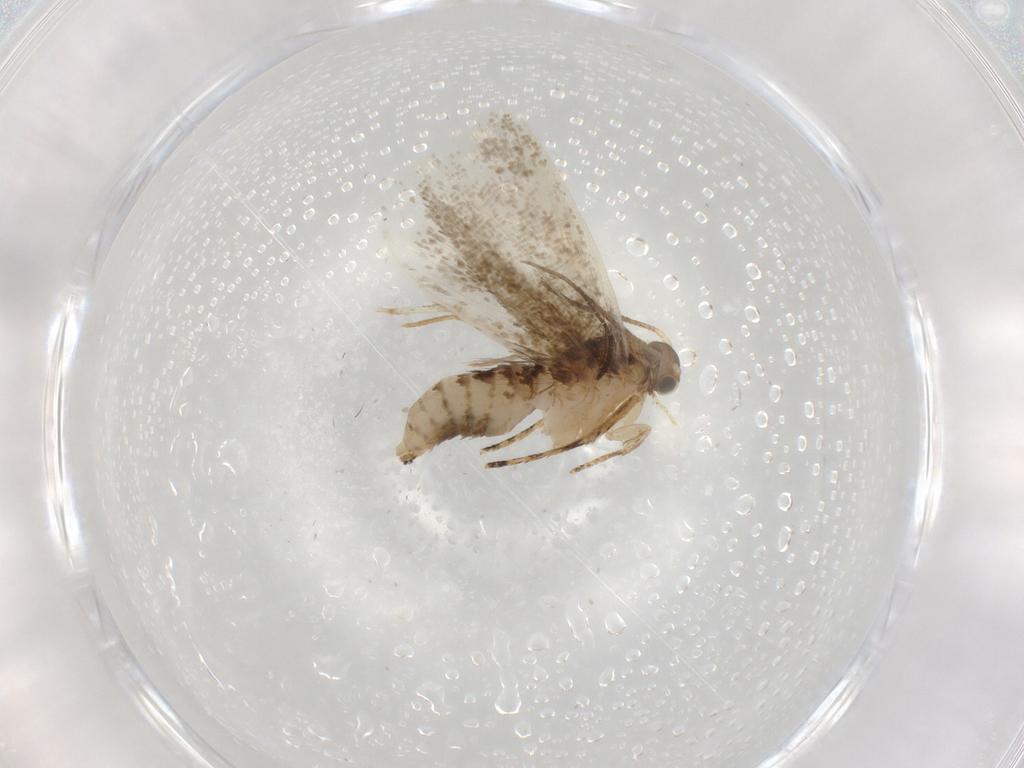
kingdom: Animalia
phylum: Arthropoda
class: Insecta
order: Lepidoptera
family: Crambidae
